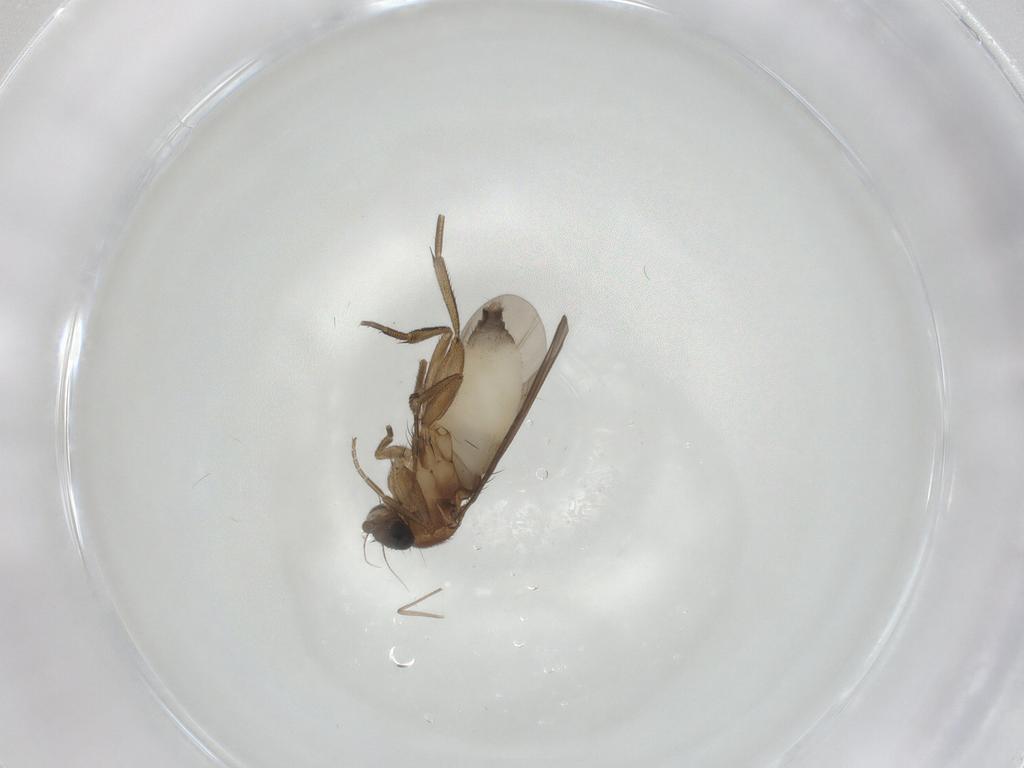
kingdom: Animalia
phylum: Arthropoda
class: Insecta
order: Diptera
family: Phoridae
